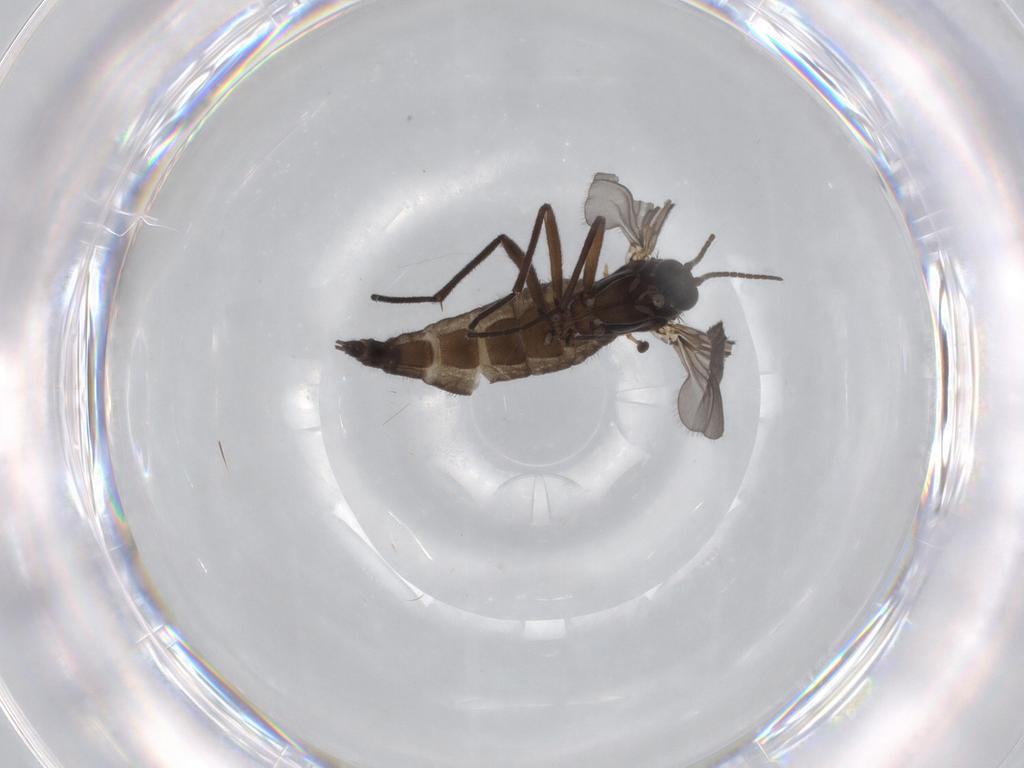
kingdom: Animalia
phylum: Arthropoda
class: Insecta
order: Diptera
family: Sciaridae
